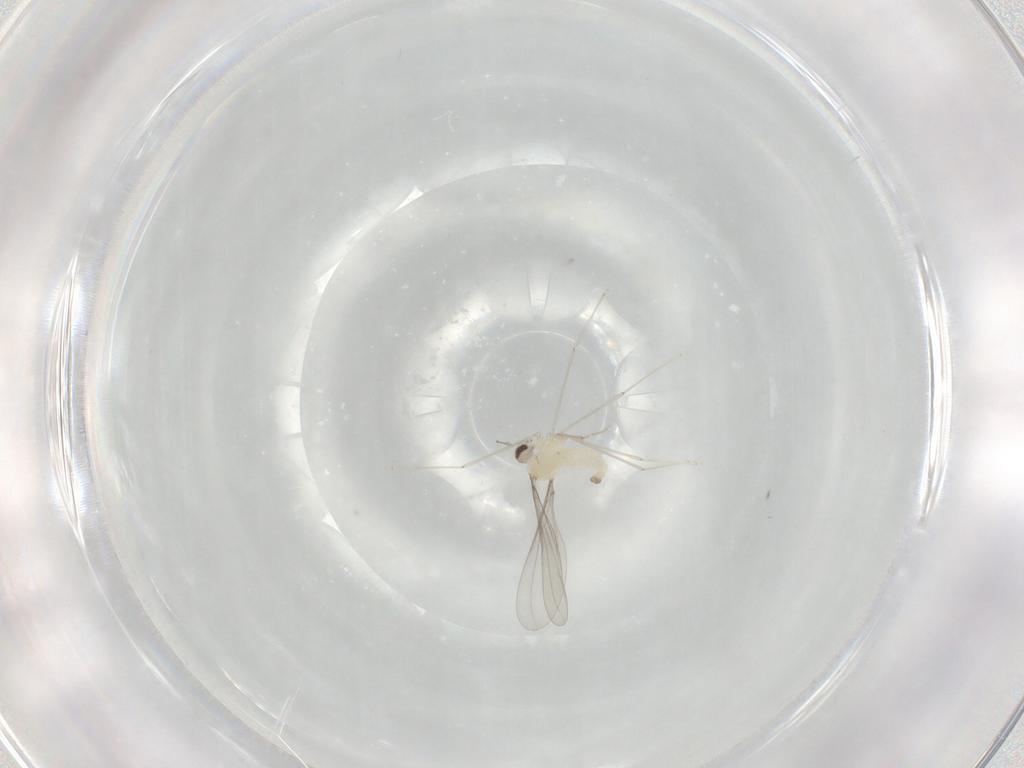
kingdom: Animalia
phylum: Arthropoda
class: Insecta
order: Diptera
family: Cecidomyiidae
